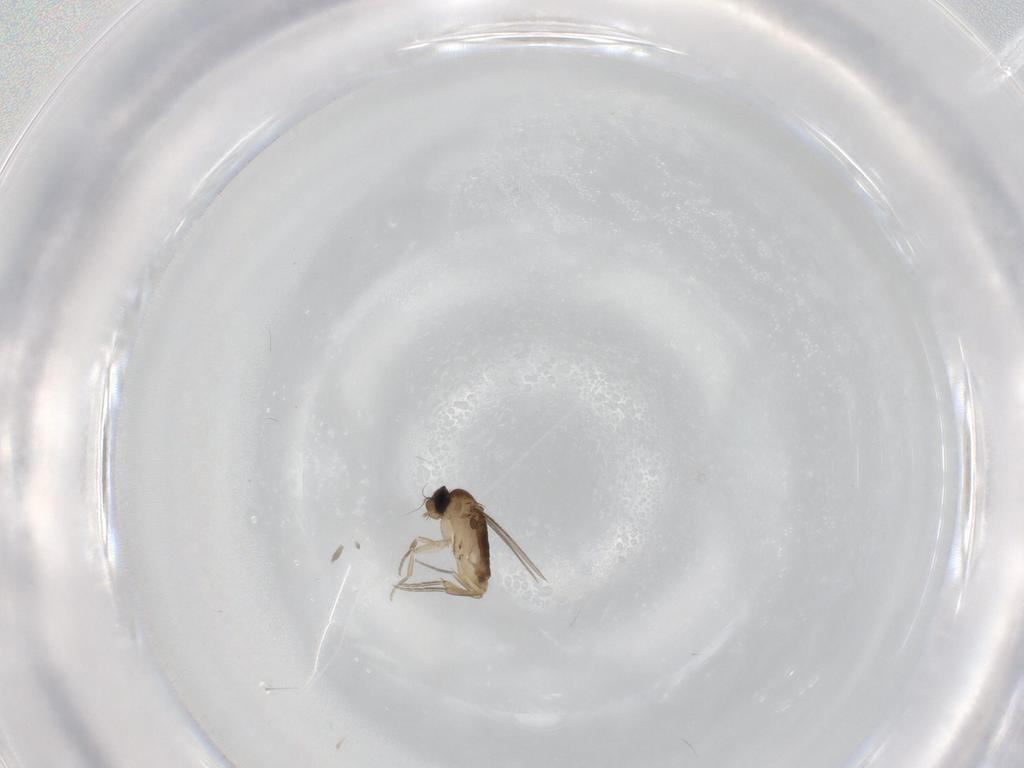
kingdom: Animalia
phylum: Arthropoda
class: Insecta
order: Diptera
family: Phoridae
